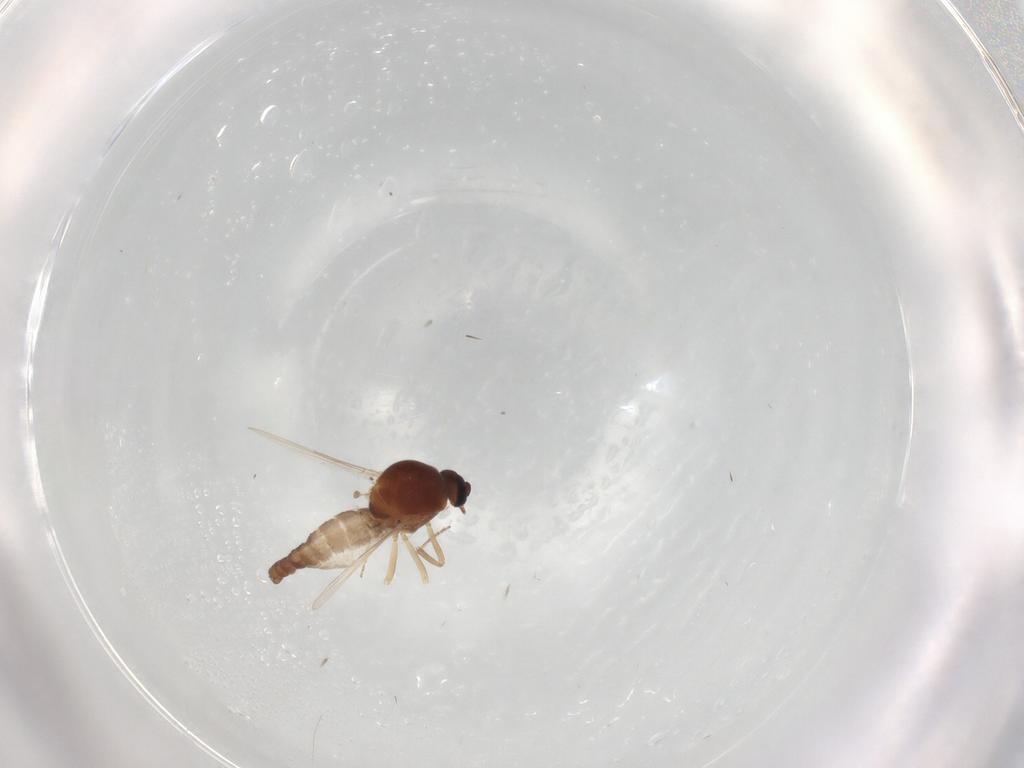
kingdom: Animalia
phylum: Arthropoda
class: Insecta
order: Diptera
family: Ceratopogonidae
